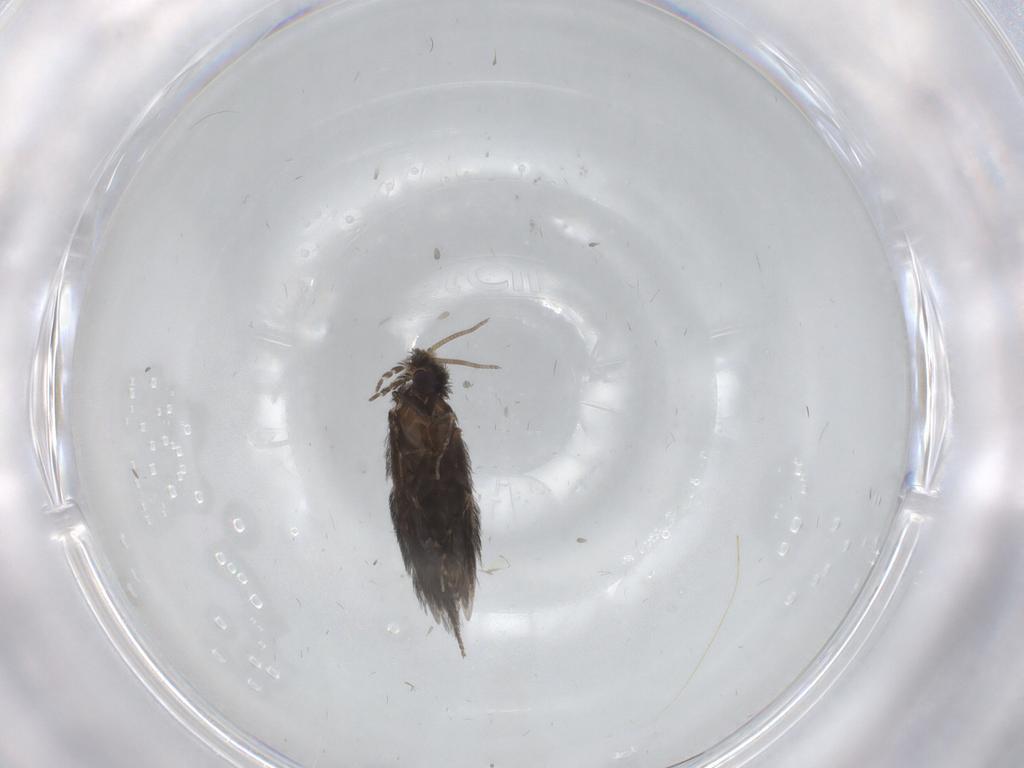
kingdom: Animalia
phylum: Arthropoda
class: Insecta
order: Trichoptera
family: Hydroptilidae
